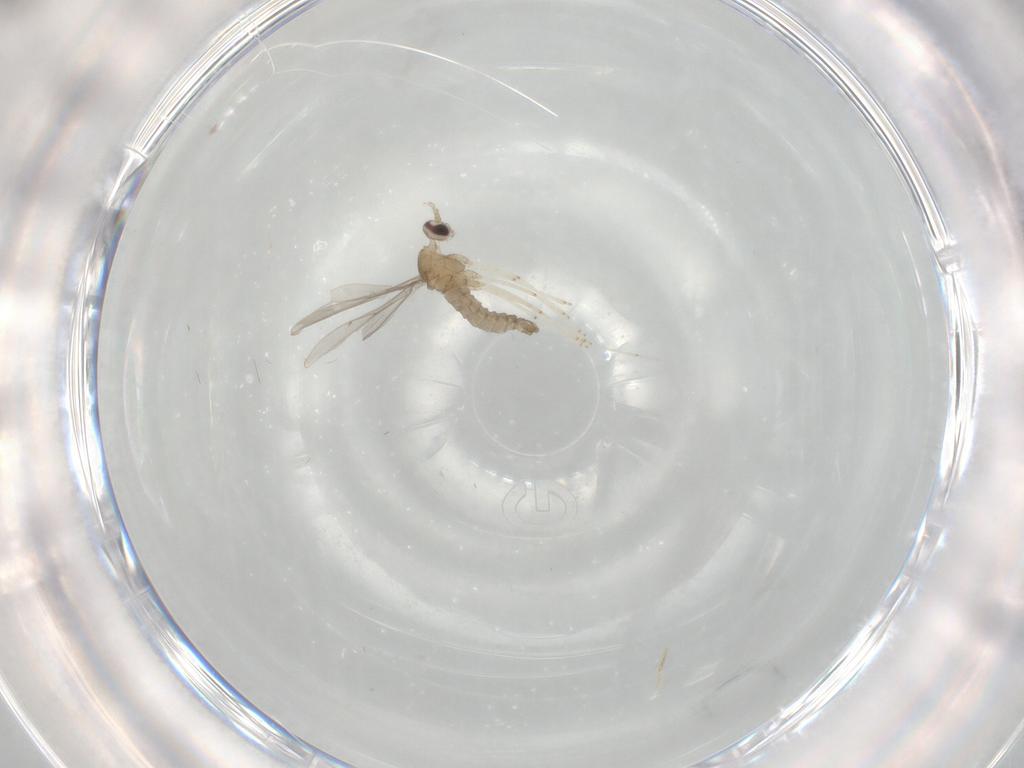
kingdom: Animalia
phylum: Arthropoda
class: Insecta
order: Diptera
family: Cecidomyiidae
